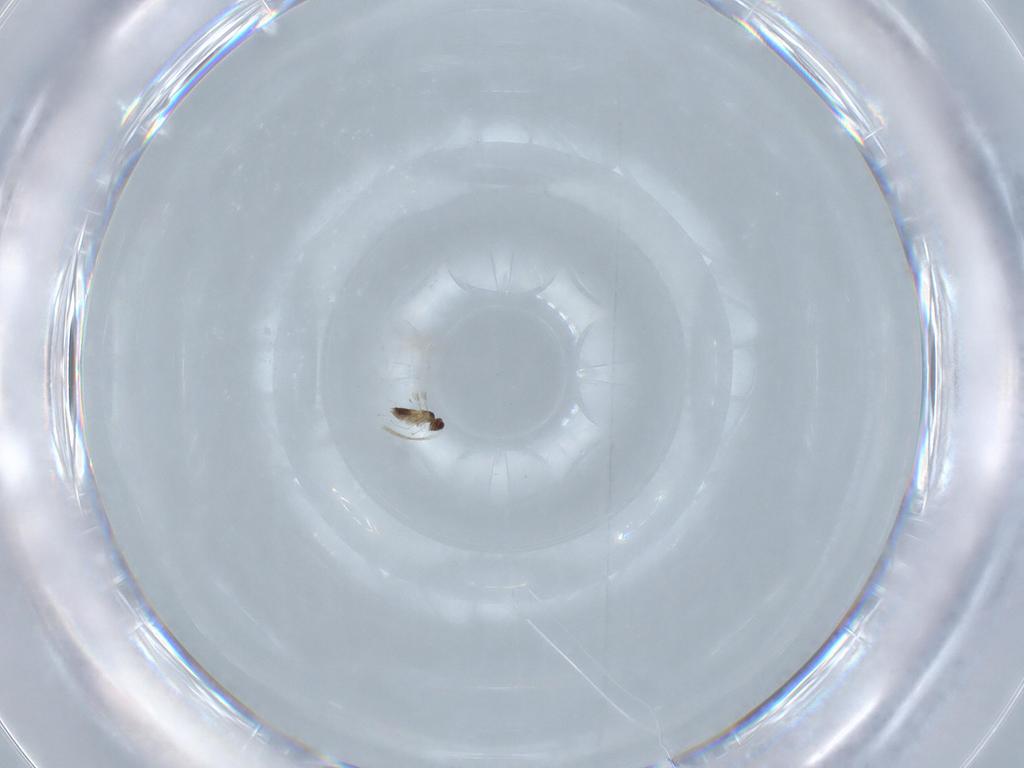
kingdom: Animalia
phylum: Arthropoda
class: Insecta
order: Hymenoptera
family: Mymaridae
